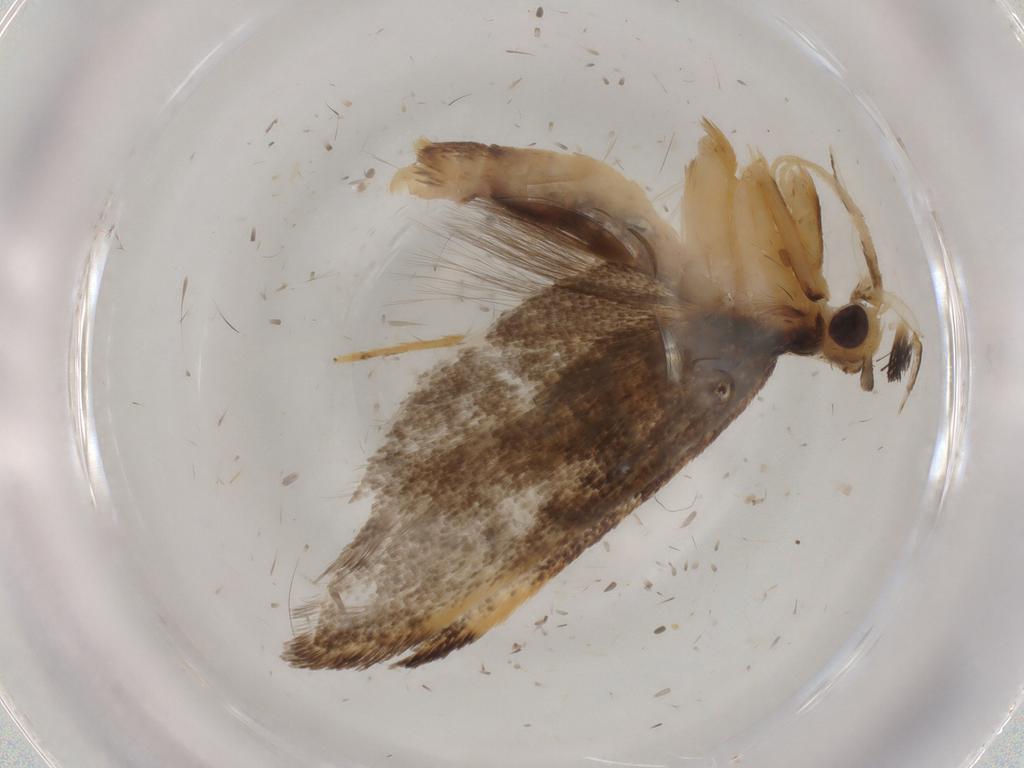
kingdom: Animalia
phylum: Arthropoda
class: Insecta
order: Lepidoptera
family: Lecithoceridae
